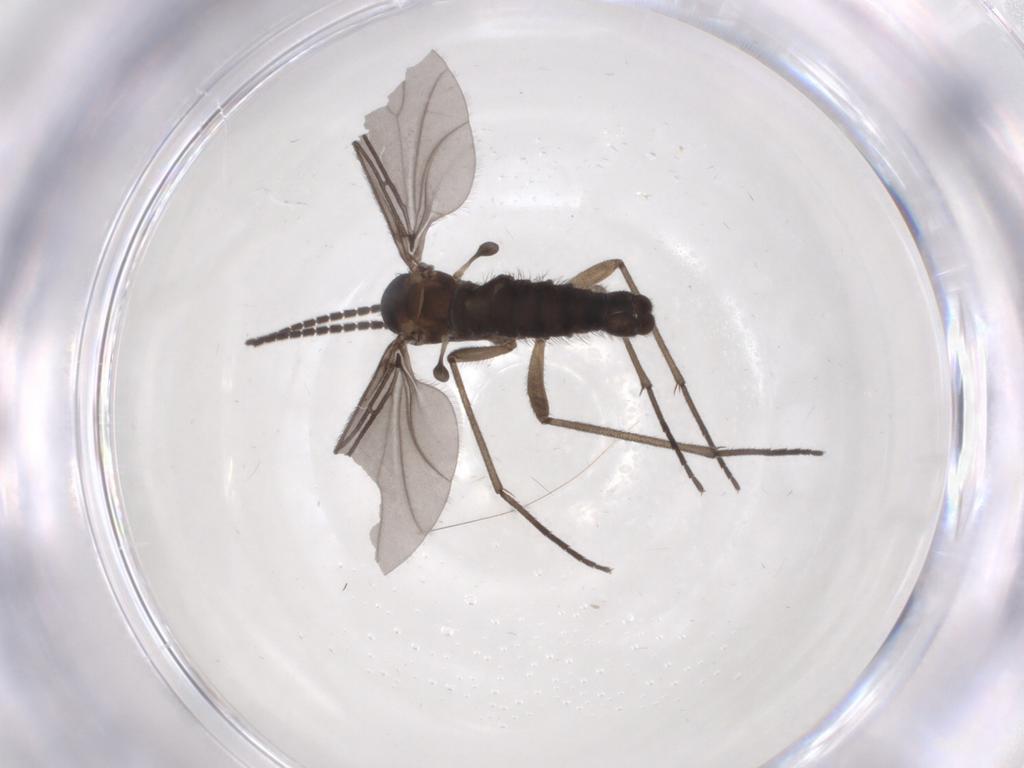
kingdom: Animalia
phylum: Arthropoda
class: Insecta
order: Diptera
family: Sciaridae
